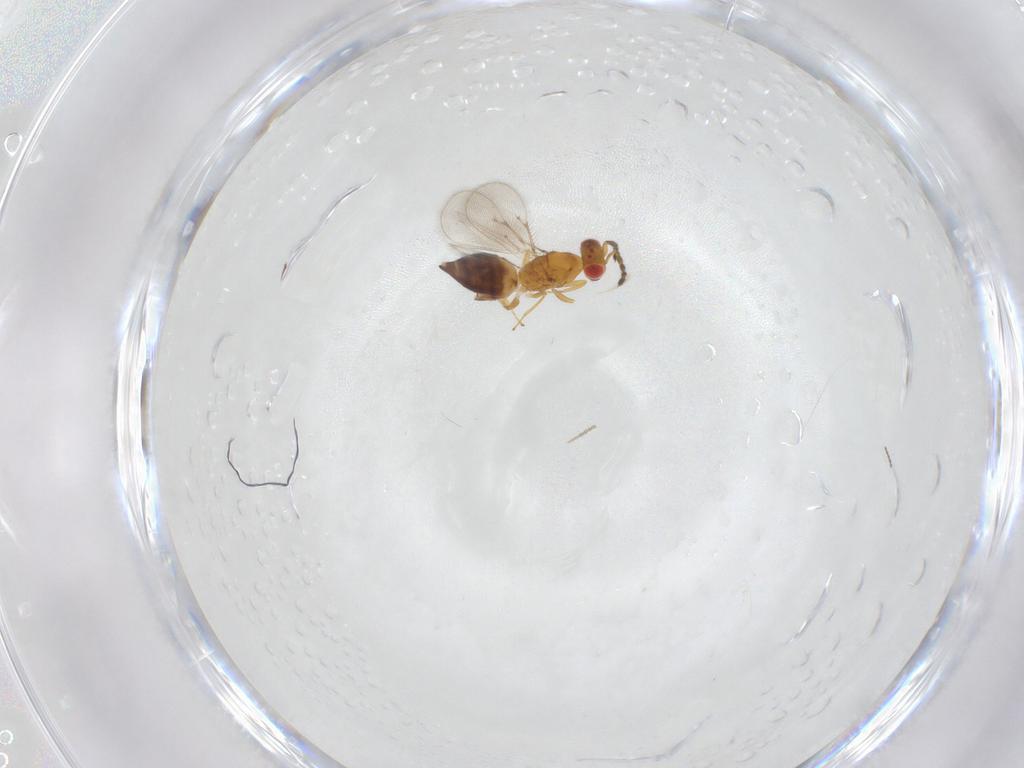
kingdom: Animalia
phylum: Arthropoda
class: Insecta
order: Hymenoptera
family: Eulophidae
